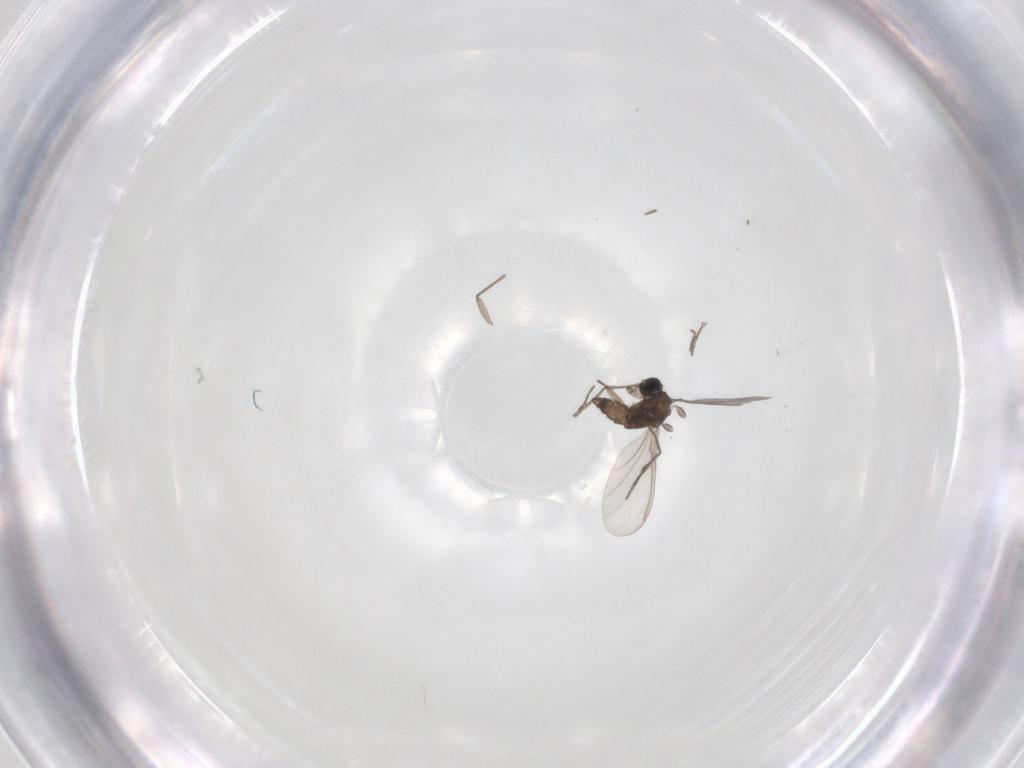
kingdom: Animalia
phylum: Arthropoda
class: Insecta
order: Diptera
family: Sciaridae
